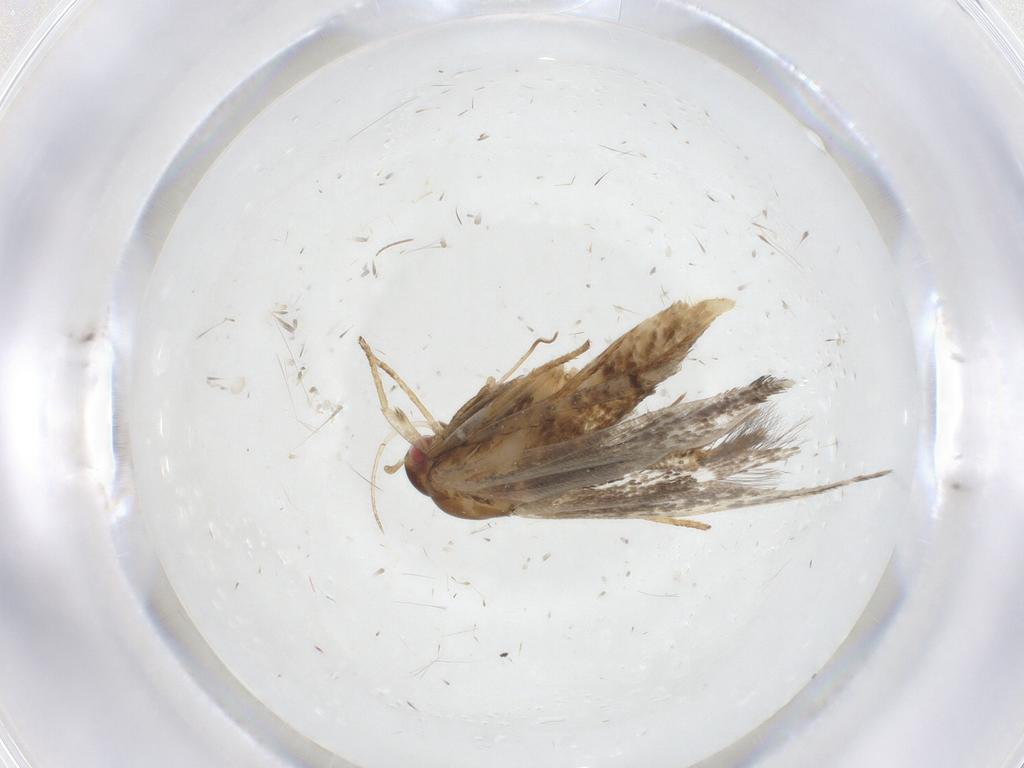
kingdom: Animalia
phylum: Arthropoda
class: Insecta
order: Lepidoptera
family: Gelechiidae
